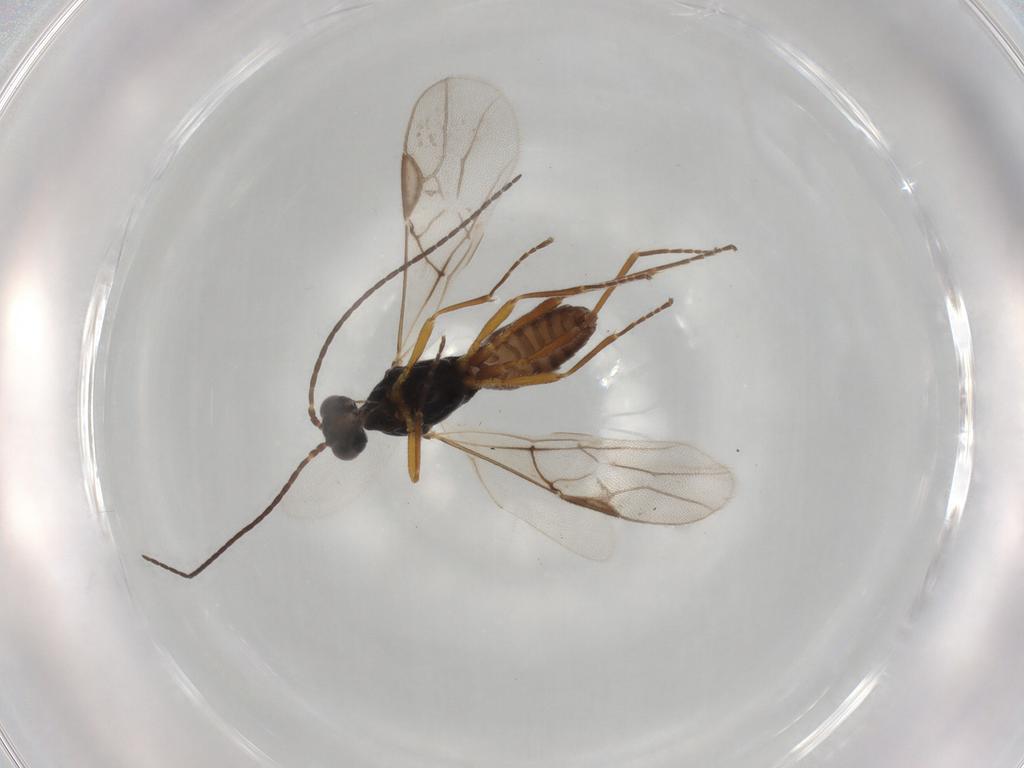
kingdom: Animalia
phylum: Arthropoda
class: Insecta
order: Hymenoptera
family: Braconidae
